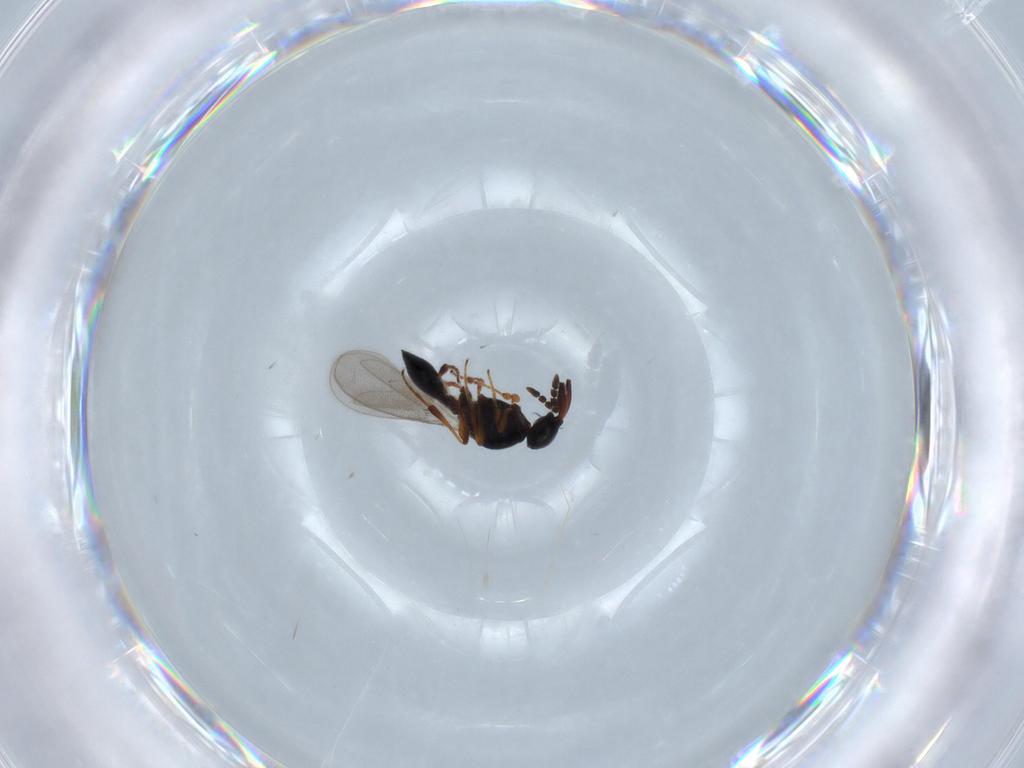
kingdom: Animalia
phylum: Arthropoda
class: Insecta
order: Hymenoptera
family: Platygastridae
